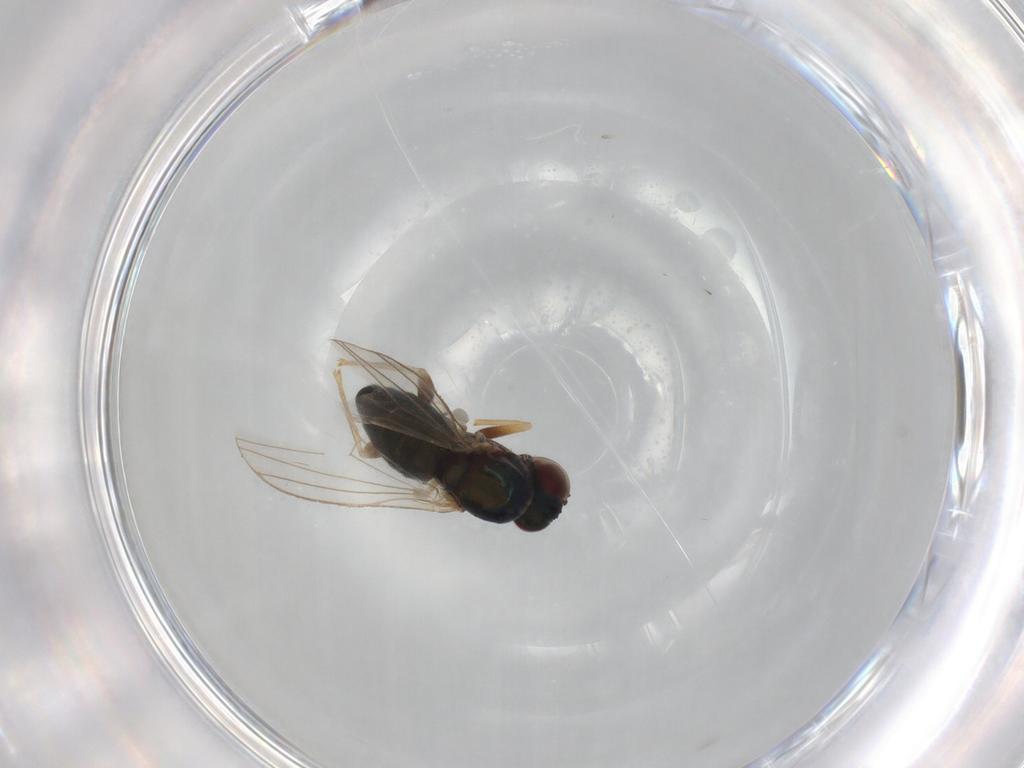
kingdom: Animalia
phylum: Arthropoda
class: Insecta
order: Diptera
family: Dolichopodidae
